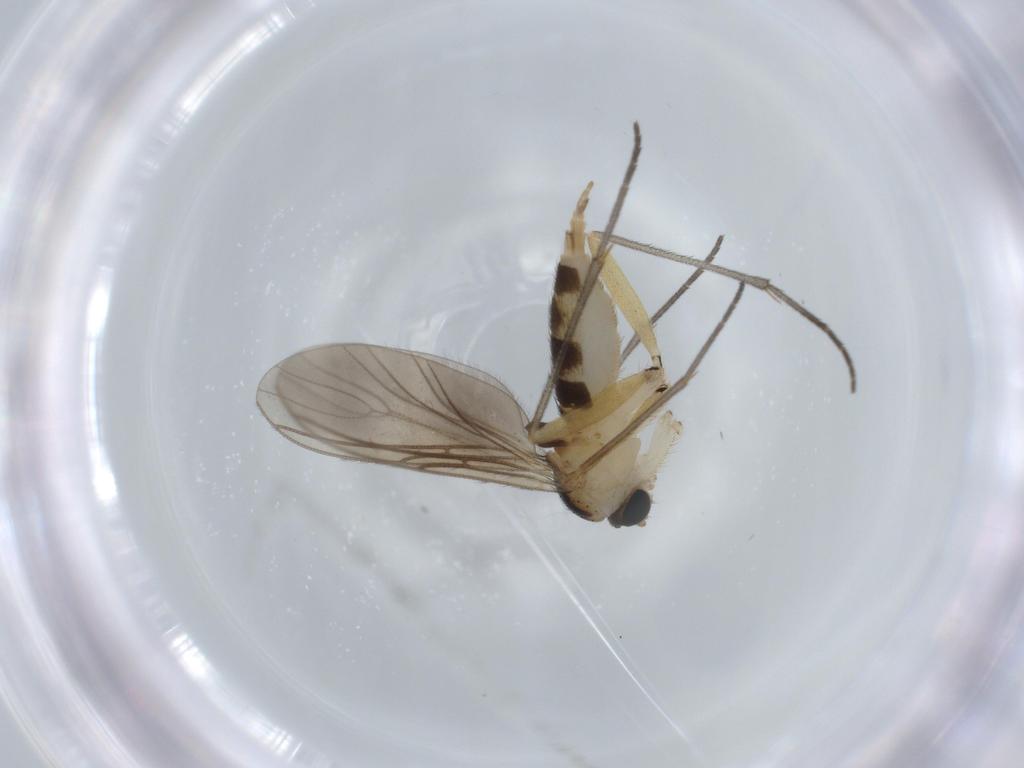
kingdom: Animalia
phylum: Arthropoda
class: Insecta
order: Diptera
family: Sciaridae
